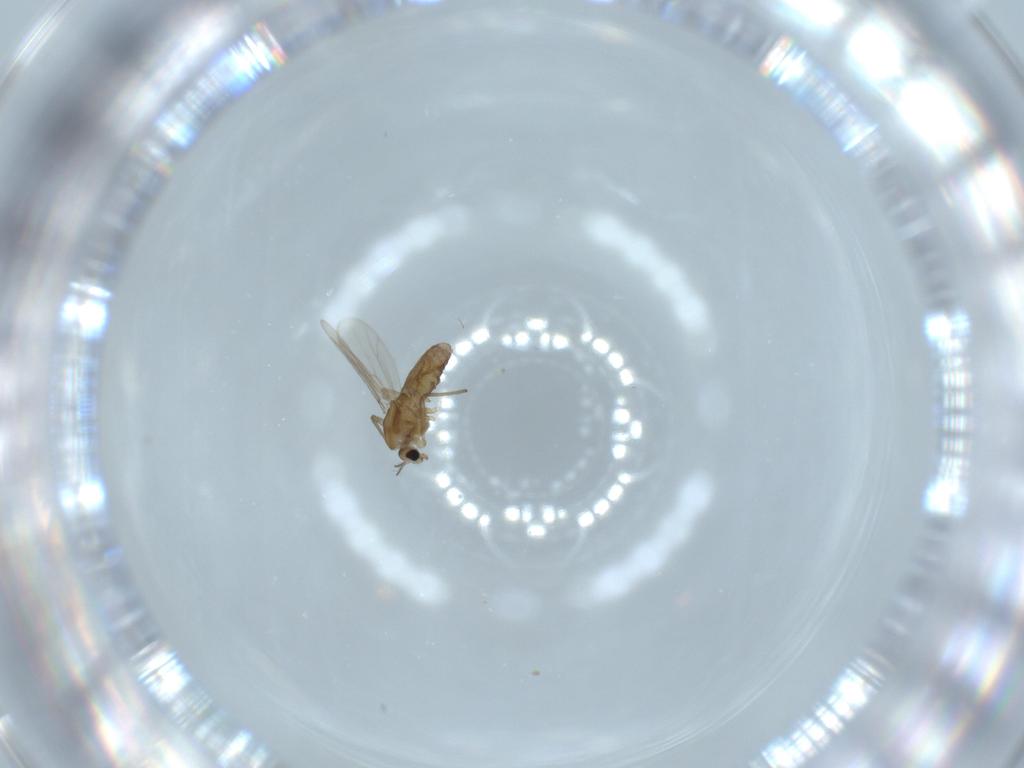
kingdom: Animalia
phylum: Arthropoda
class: Insecta
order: Diptera
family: Chironomidae
